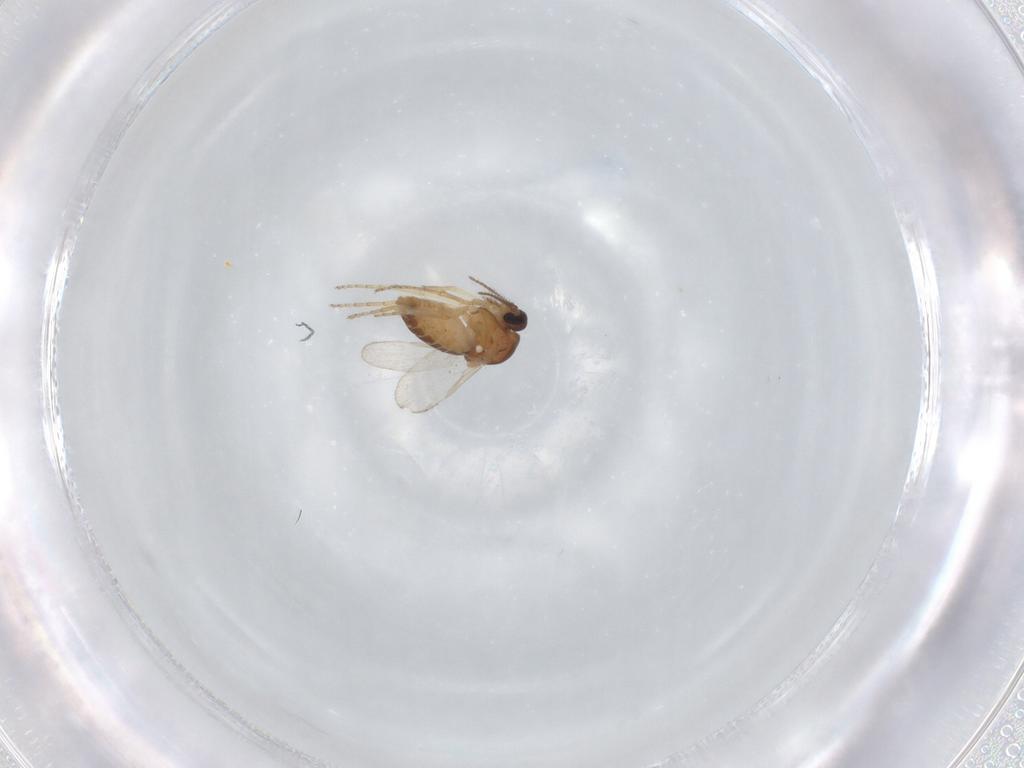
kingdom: Animalia
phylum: Arthropoda
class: Insecta
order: Diptera
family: Ceratopogonidae
